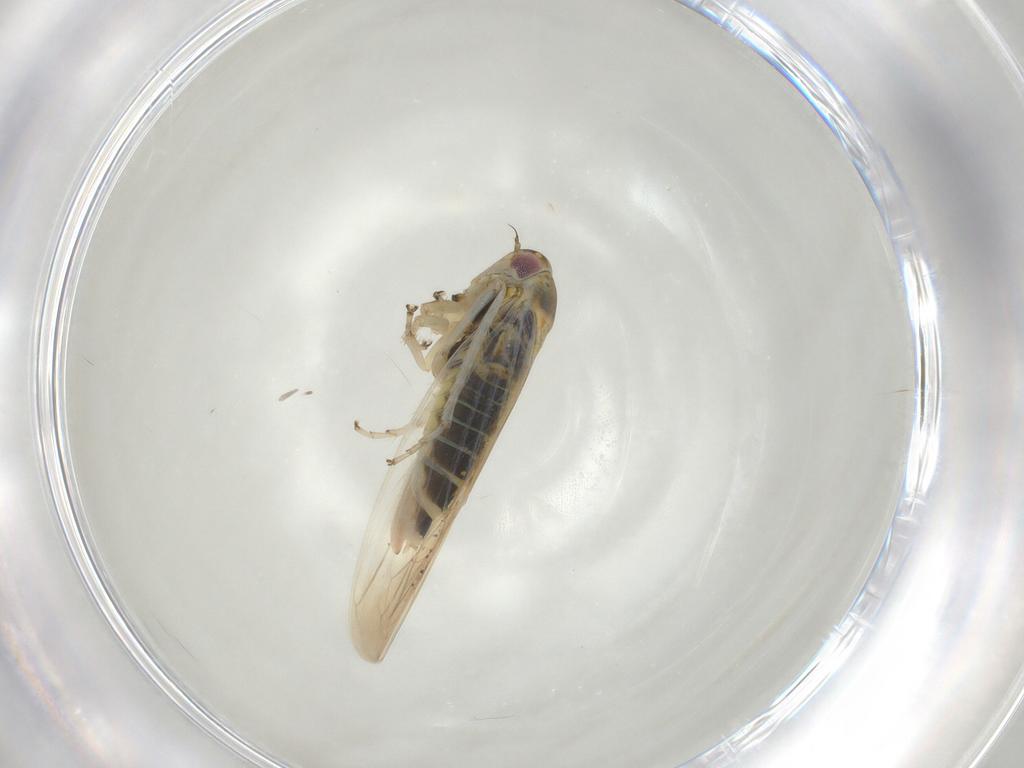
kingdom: Animalia
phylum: Arthropoda
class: Insecta
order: Hemiptera
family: Cicadellidae
